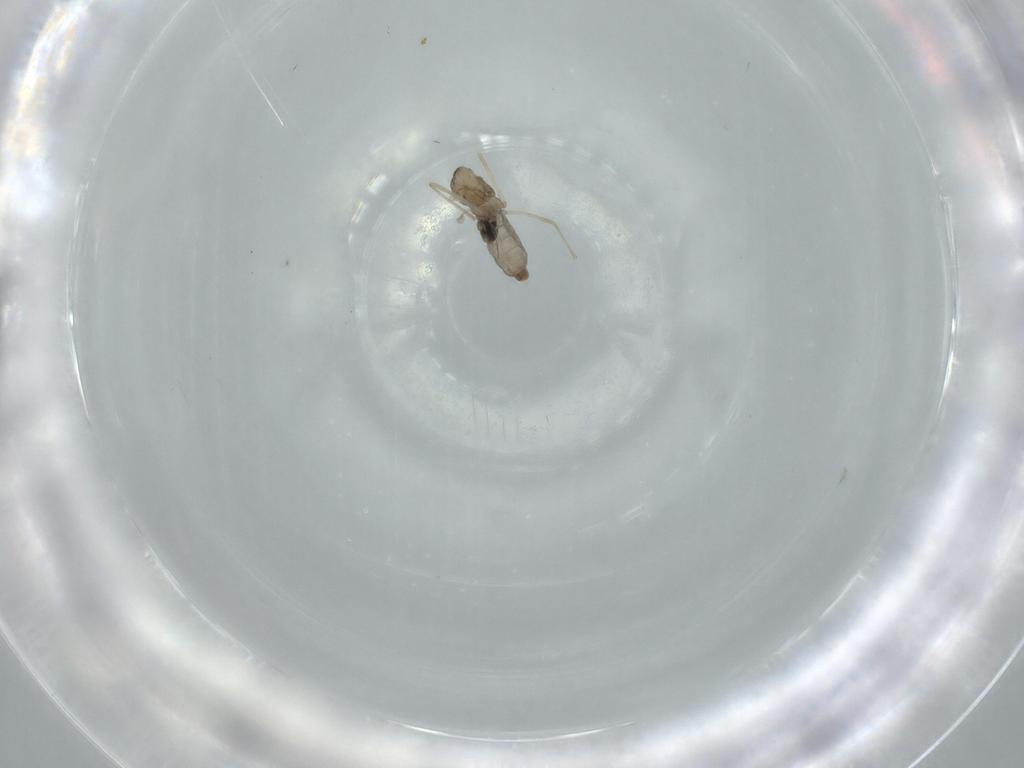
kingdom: Animalia
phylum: Arthropoda
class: Insecta
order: Diptera
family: Cecidomyiidae
